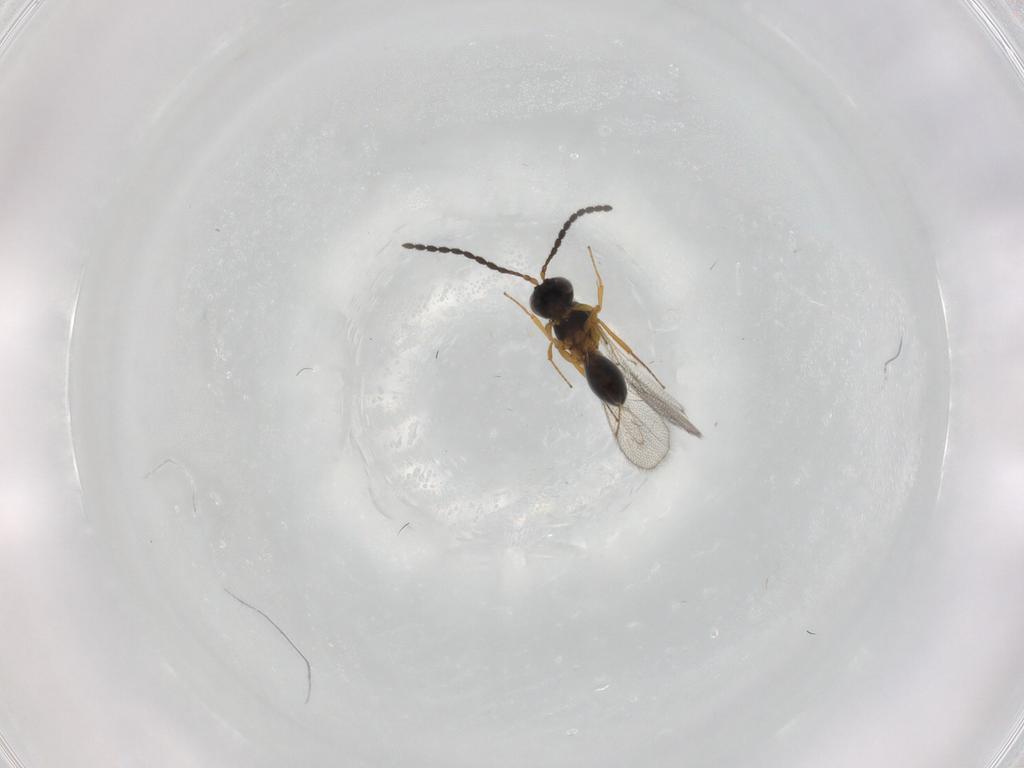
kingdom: Animalia
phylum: Arthropoda
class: Insecta
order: Hymenoptera
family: Figitidae
